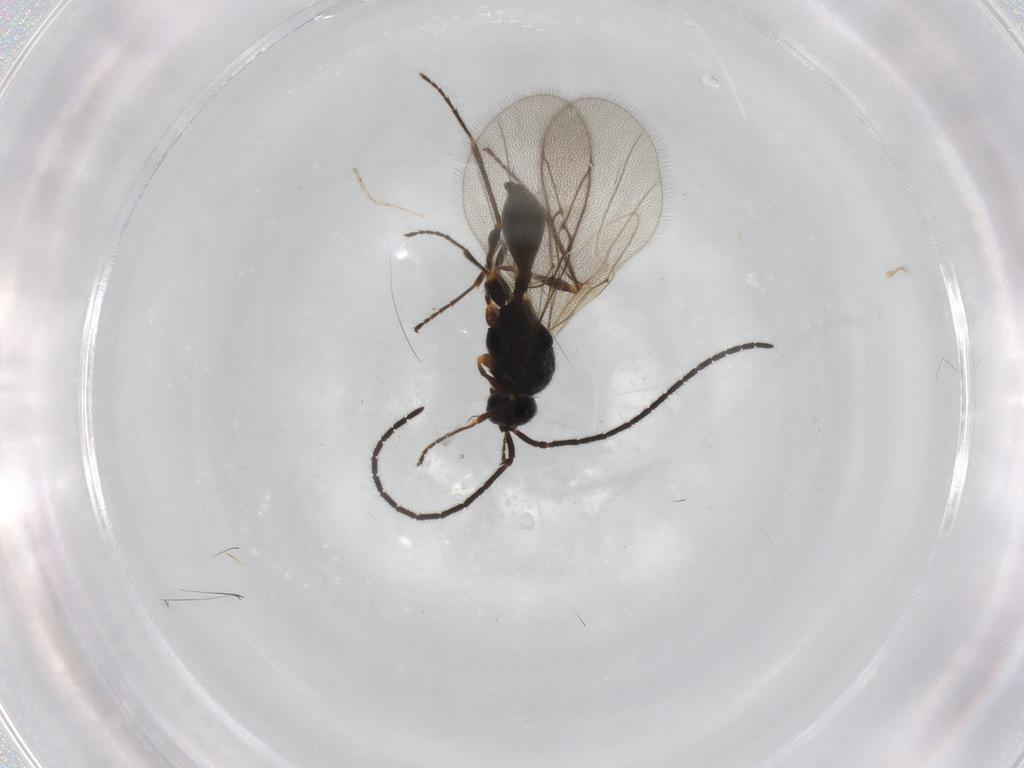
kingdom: Animalia
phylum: Arthropoda
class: Insecta
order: Hymenoptera
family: Diapriidae
